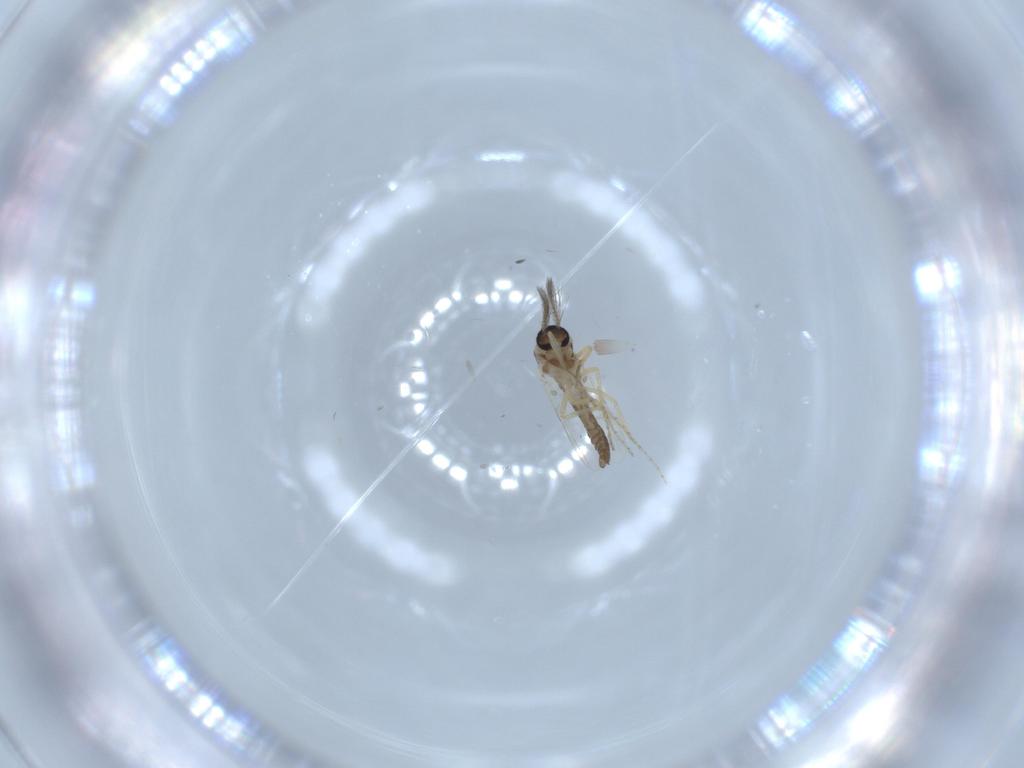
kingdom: Animalia
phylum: Arthropoda
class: Insecta
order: Diptera
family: Ceratopogonidae
